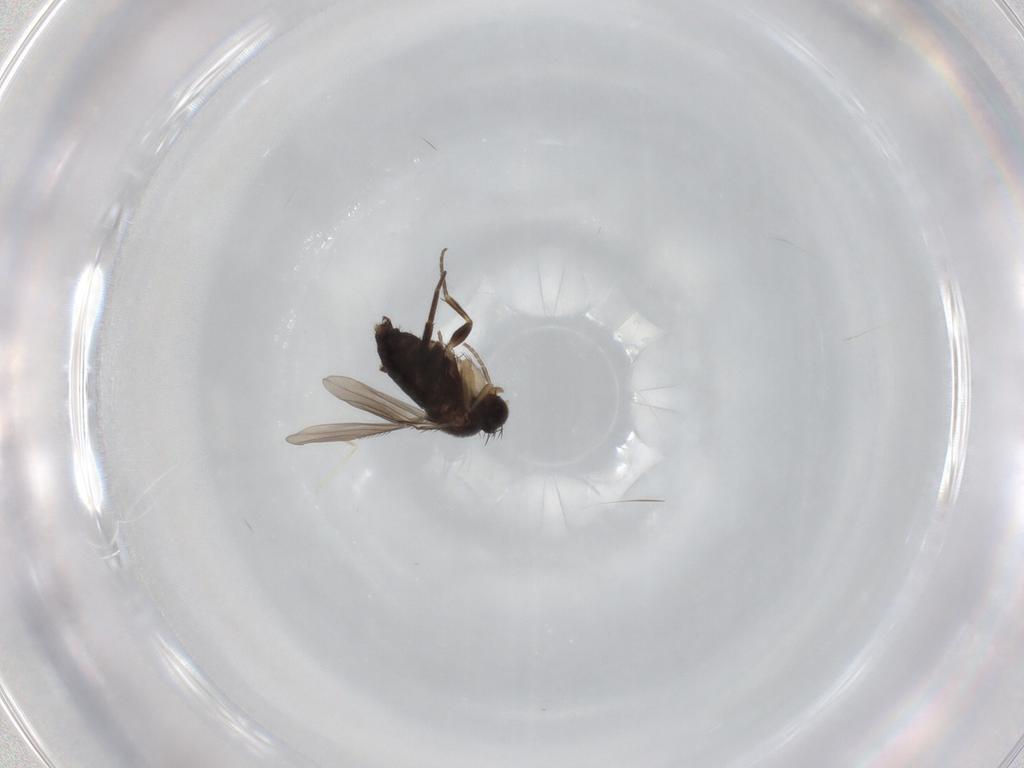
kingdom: Animalia
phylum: Arthropoda
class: Insecta
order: Diptera
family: Phoridae
